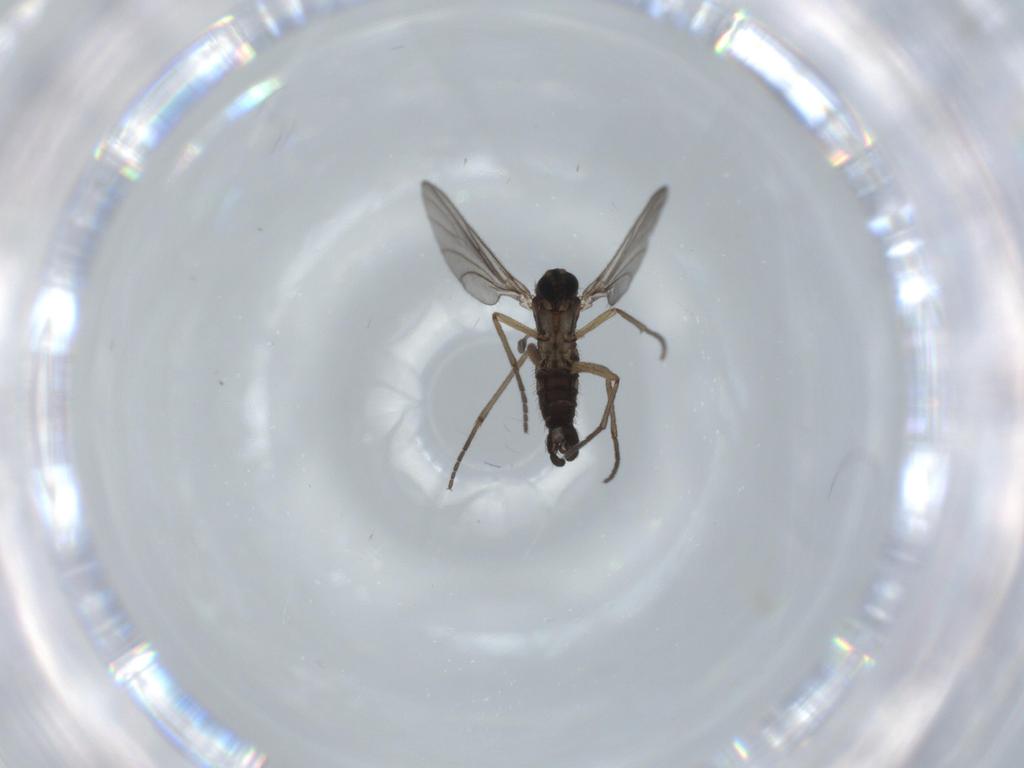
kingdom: Animalia
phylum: Arthropoda
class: Insecta
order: Diptera
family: Sciaridae
